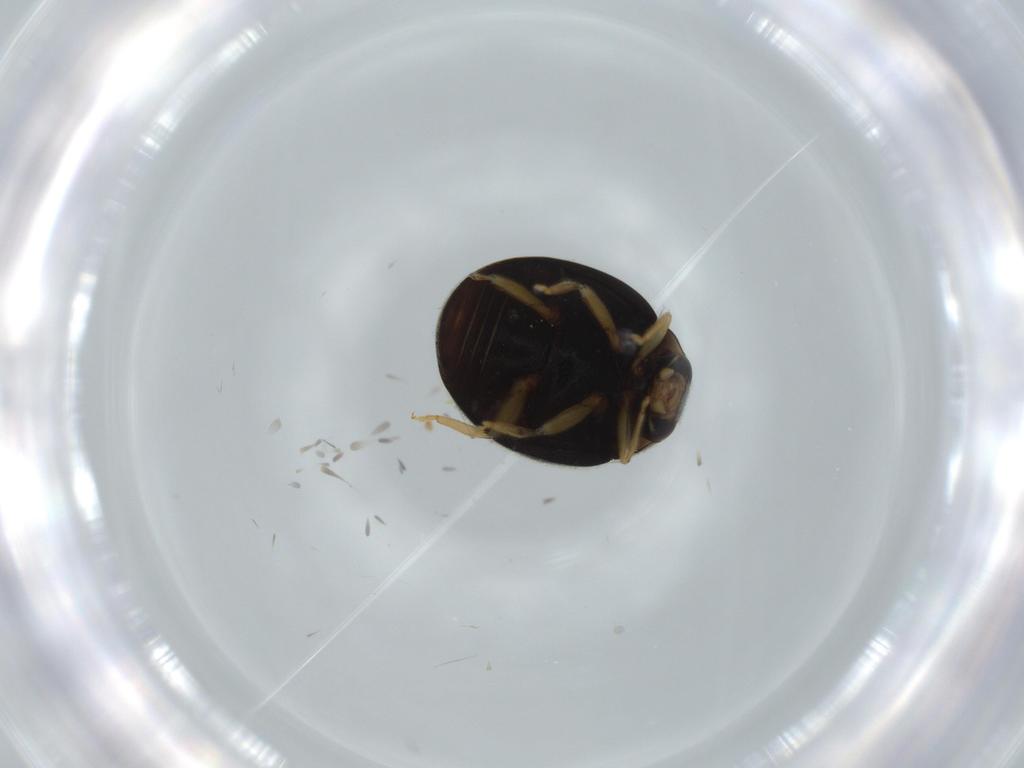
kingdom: Animalia
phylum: Arthropoda
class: Insecta
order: Coleoptera
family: Coccinellidae
